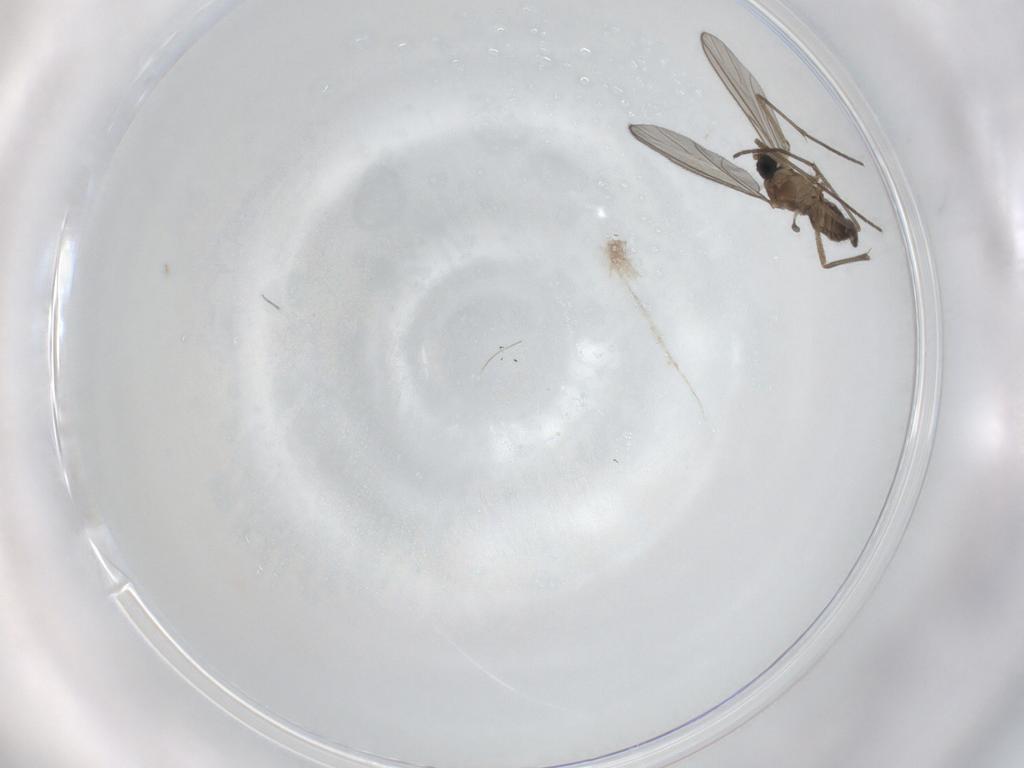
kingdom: Animalia
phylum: Arthropoda
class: Insecta
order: Diptera
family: Sciaridae
